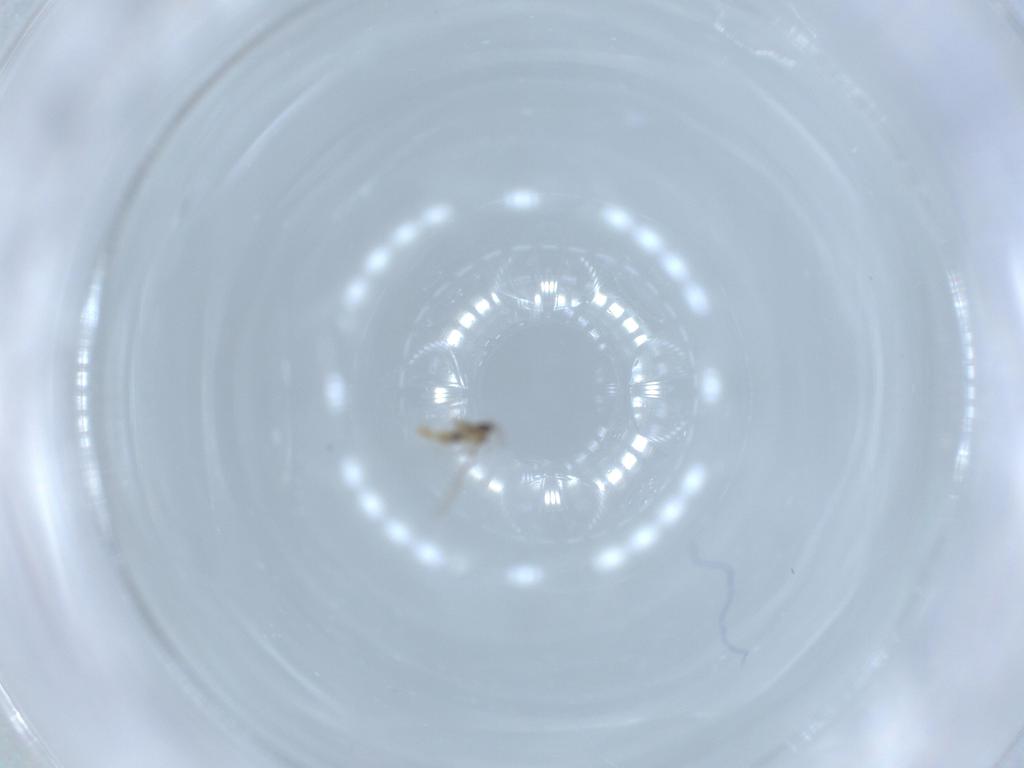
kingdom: Animalia
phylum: Arthropoda
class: Insecta
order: Diptera
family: Cecidomyiidae
